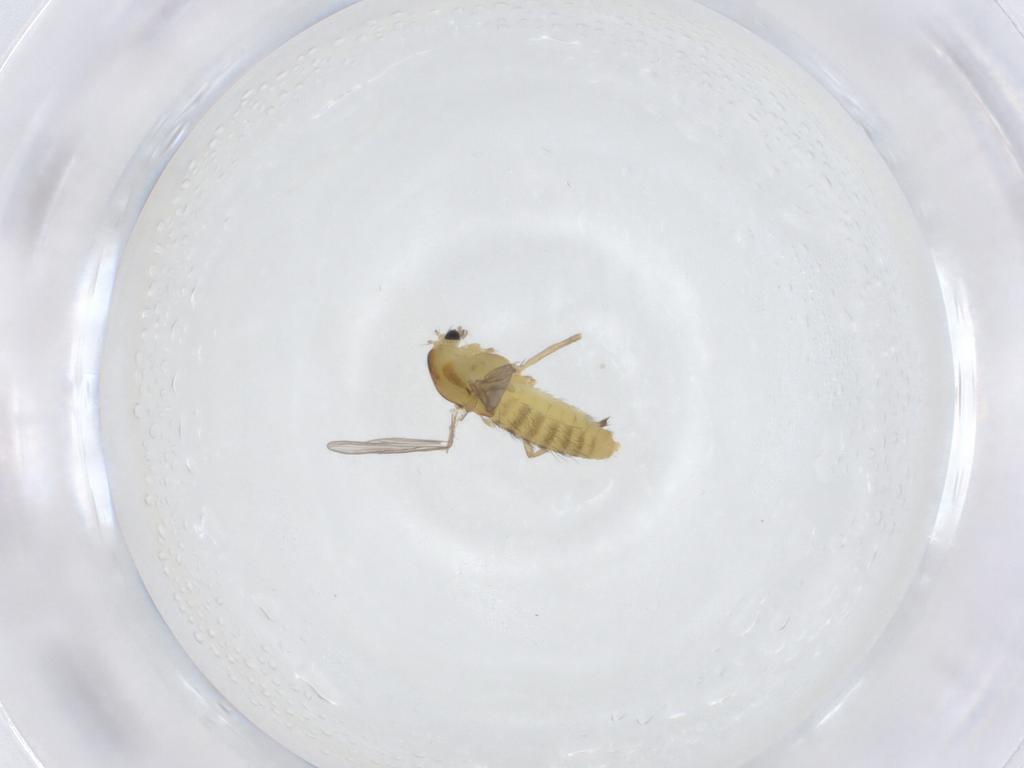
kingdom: Animalia
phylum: Arthropoda
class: Insecta
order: Diptera
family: Chironomidae
